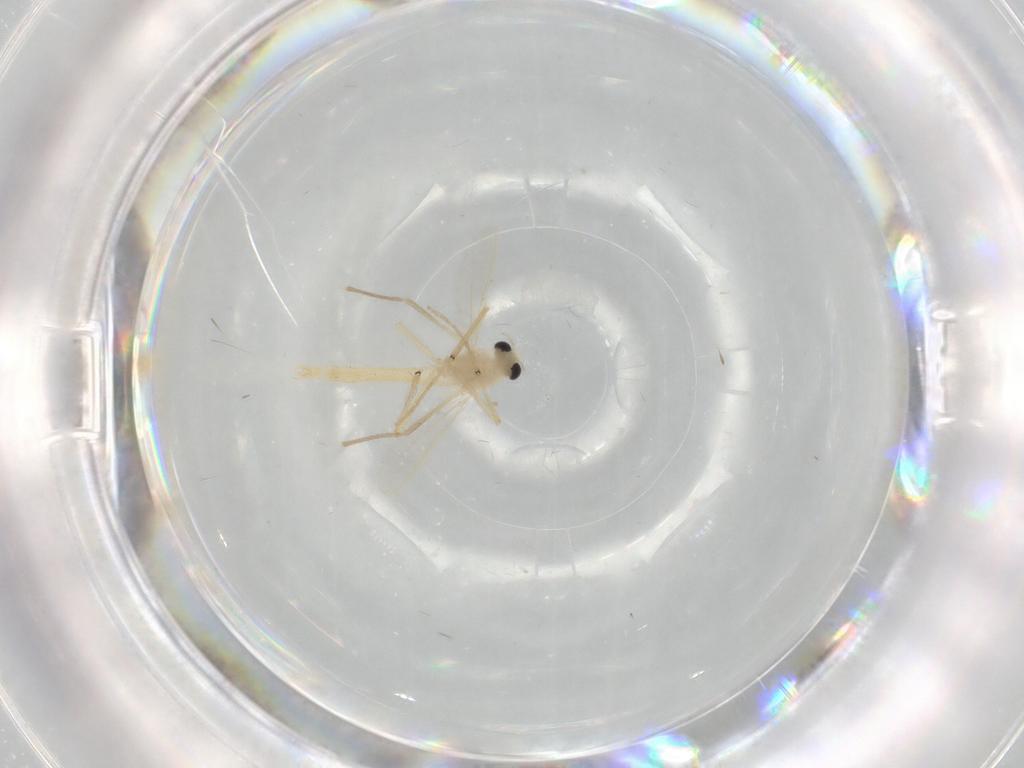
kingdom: Animalia
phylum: Arthropoda
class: Insecta
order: Diptera
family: Chironomidae
